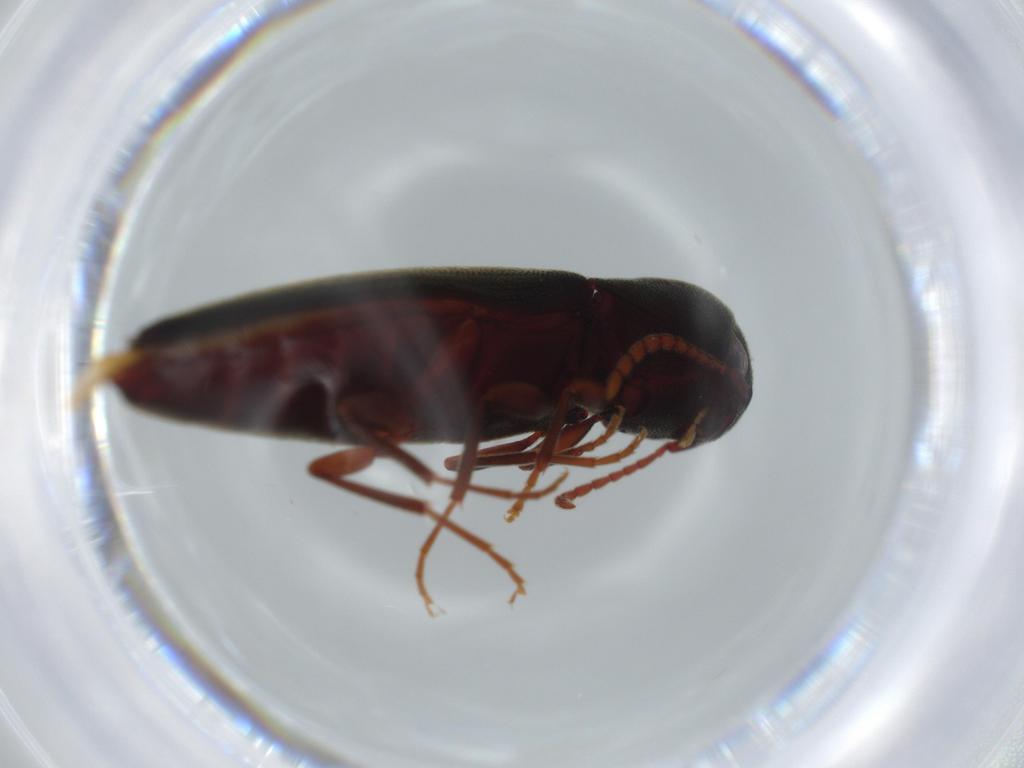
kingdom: Animalia
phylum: Arthropoda
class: Insecta
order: Coleoptera
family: Eucnemidae
